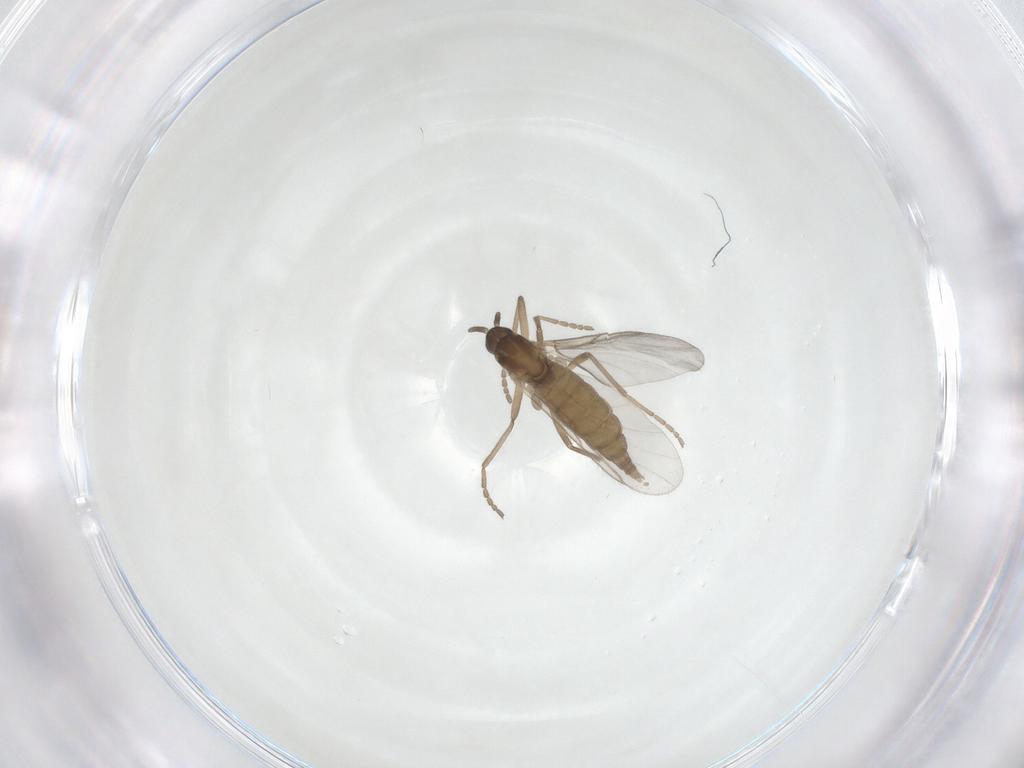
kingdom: Animalia
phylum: Arthropoda
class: Insecta
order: Diptera
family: Cecidomyiidae
